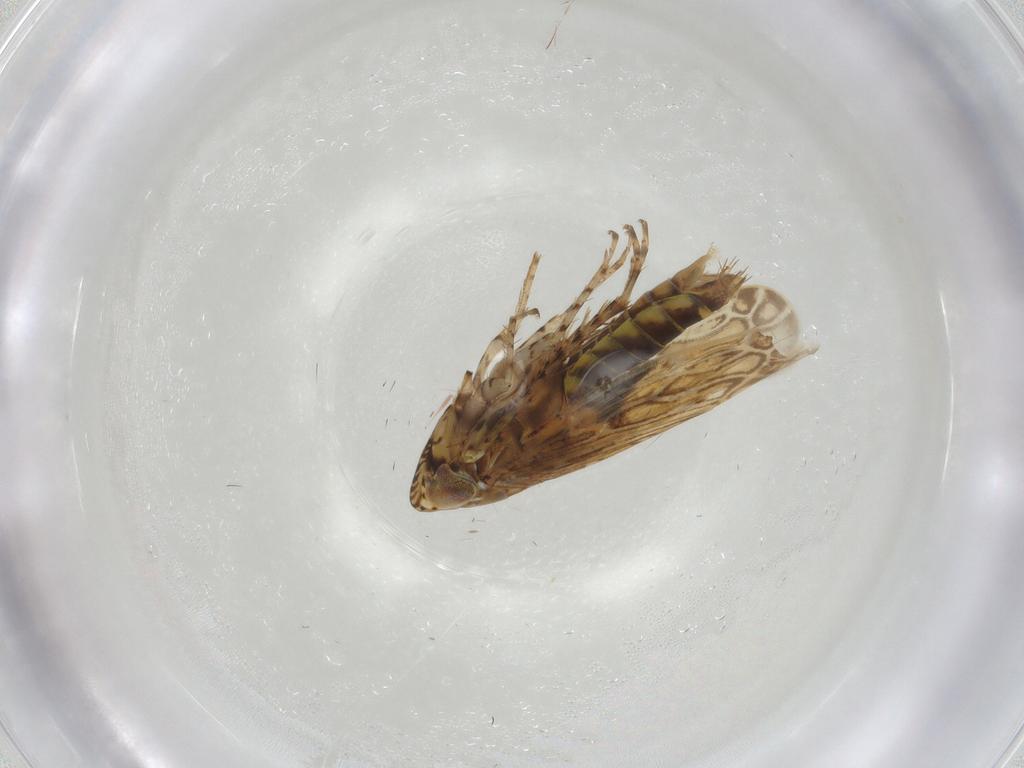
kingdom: Animalia
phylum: Arthropoda
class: Insecta
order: Hemiptera
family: Cicadellidae
